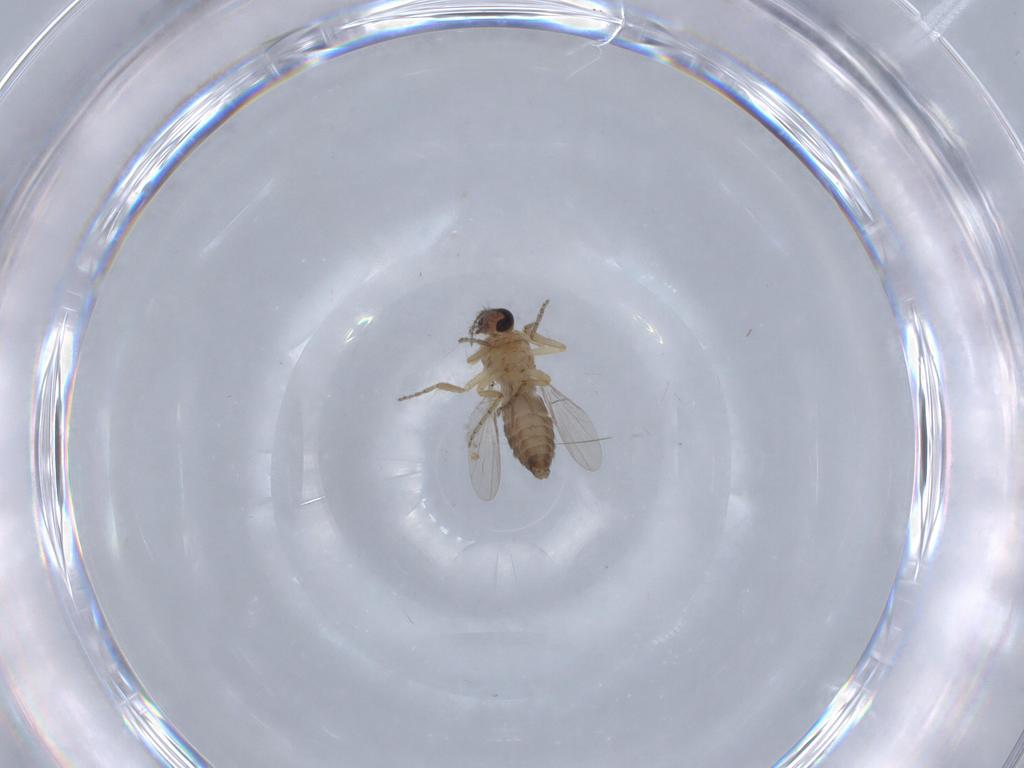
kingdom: Animalia
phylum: Arthropoda
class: Insecta
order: Diptera
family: Ceratopogonidae
